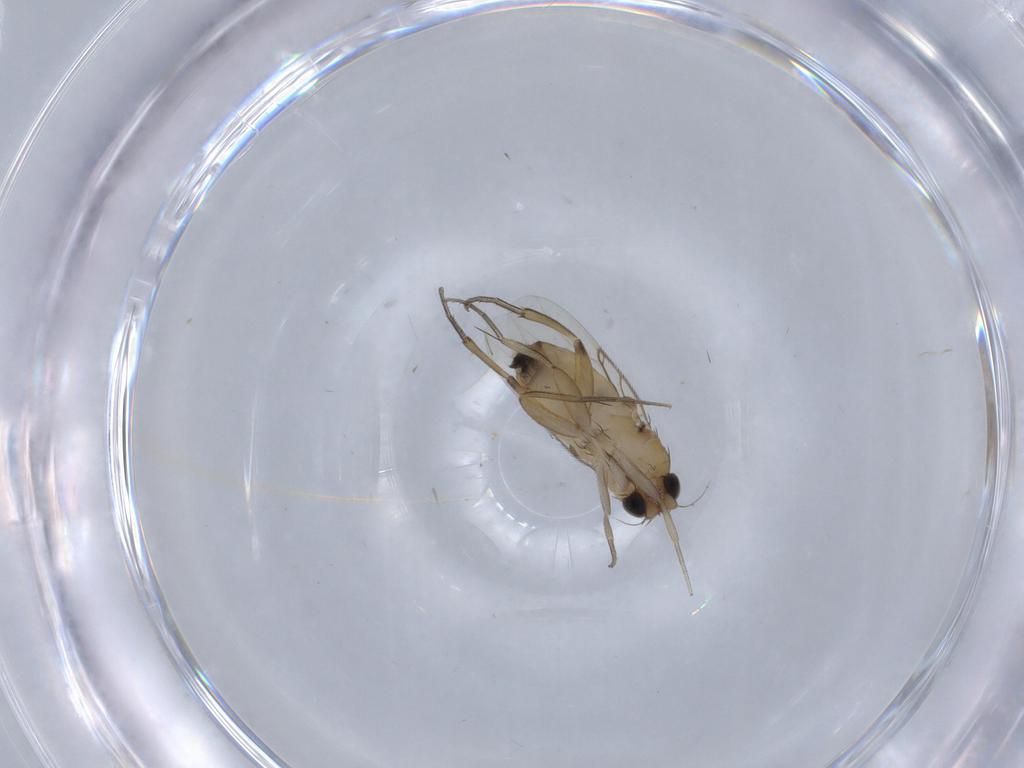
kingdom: Animalia
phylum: Arthropoda
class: Insecta
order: Diptera
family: Phoridae
